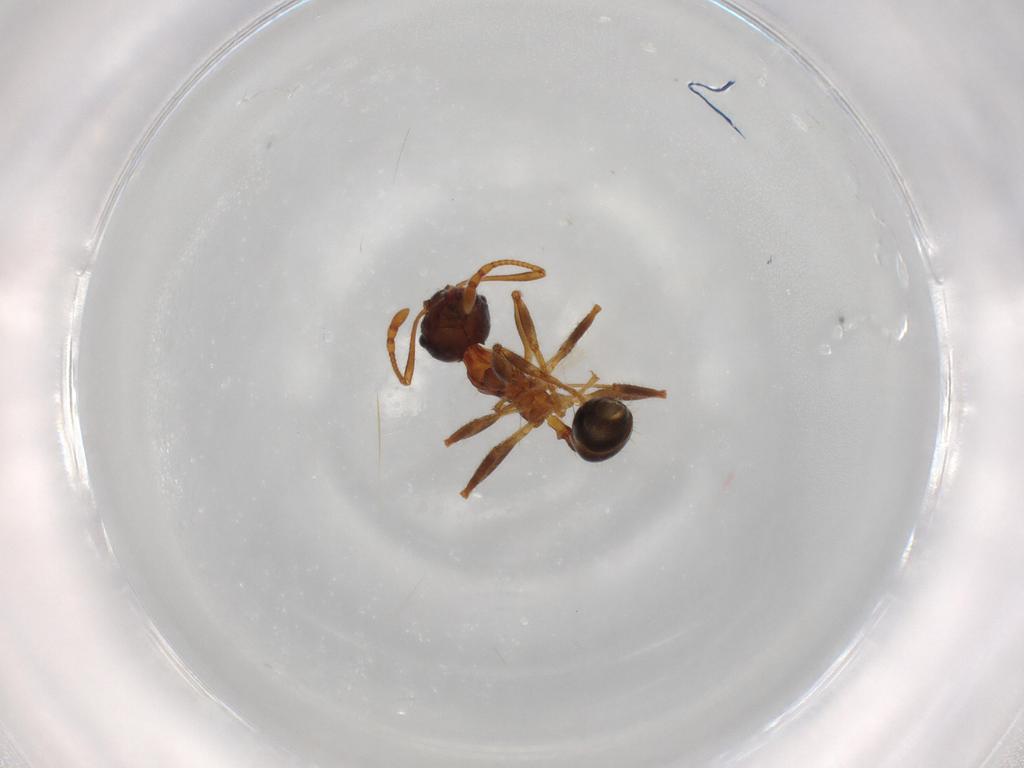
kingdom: Animalia
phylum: Arthropoda
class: Insecta
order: Hymenoptera
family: Formicidae
